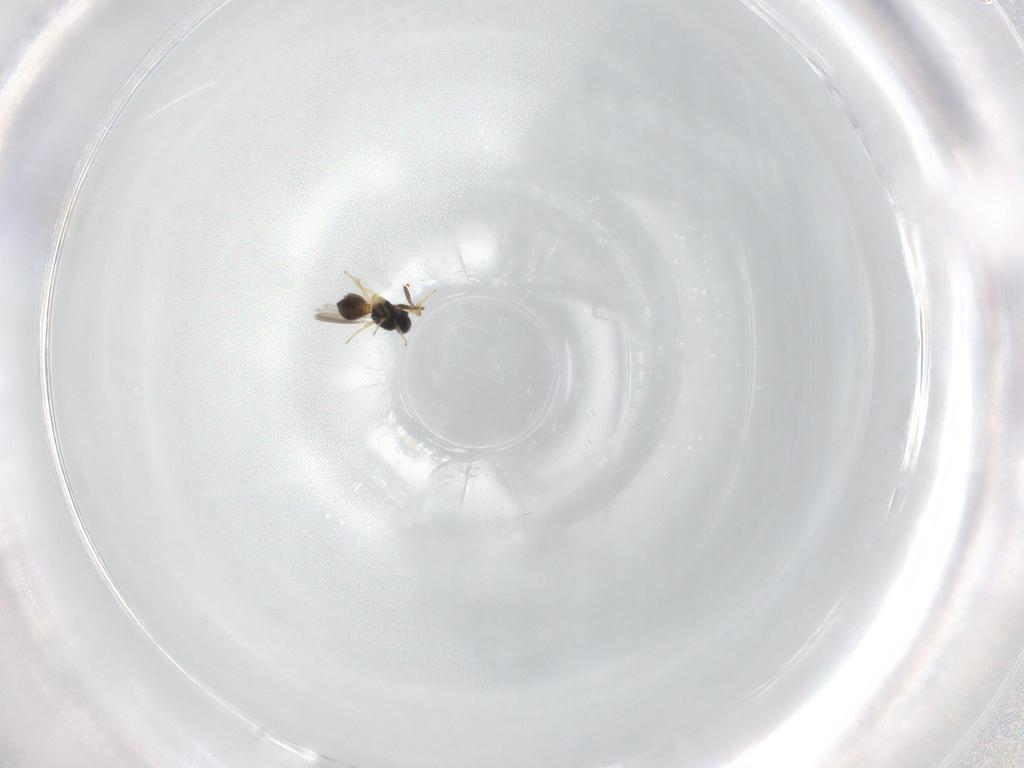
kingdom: Animalia
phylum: Arthropoda
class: Insecta
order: Hymenoptera
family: Scelionidae
